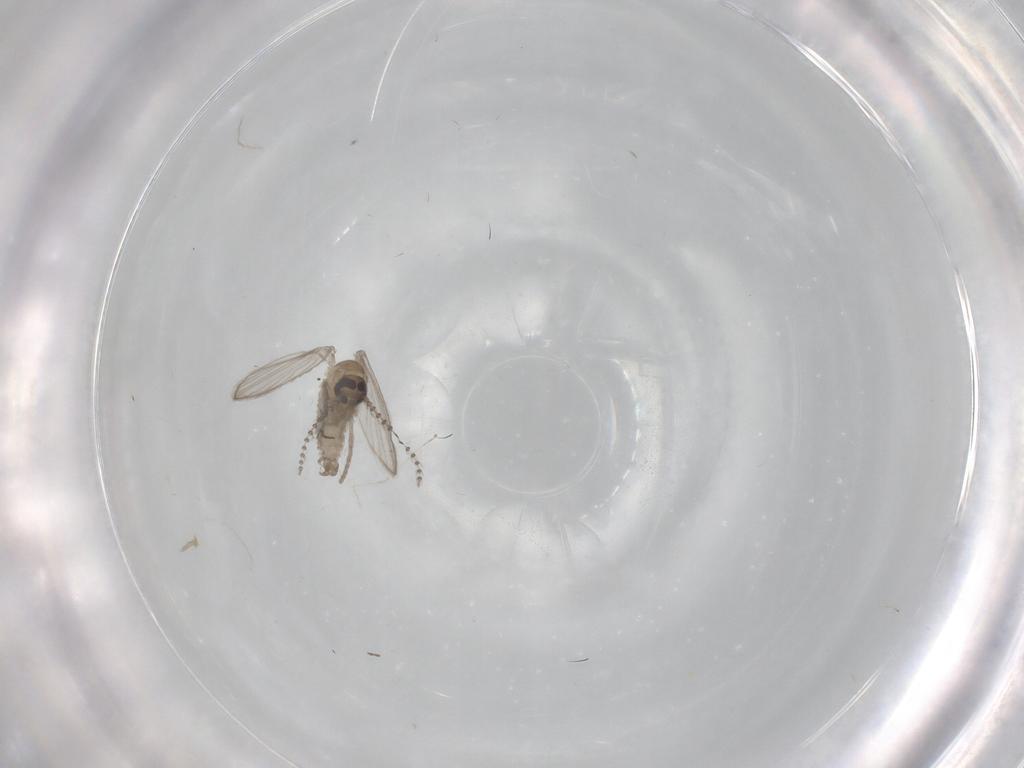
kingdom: Animalia
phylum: Arthropoda
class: Insecta
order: Diptera
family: Psychodidae
